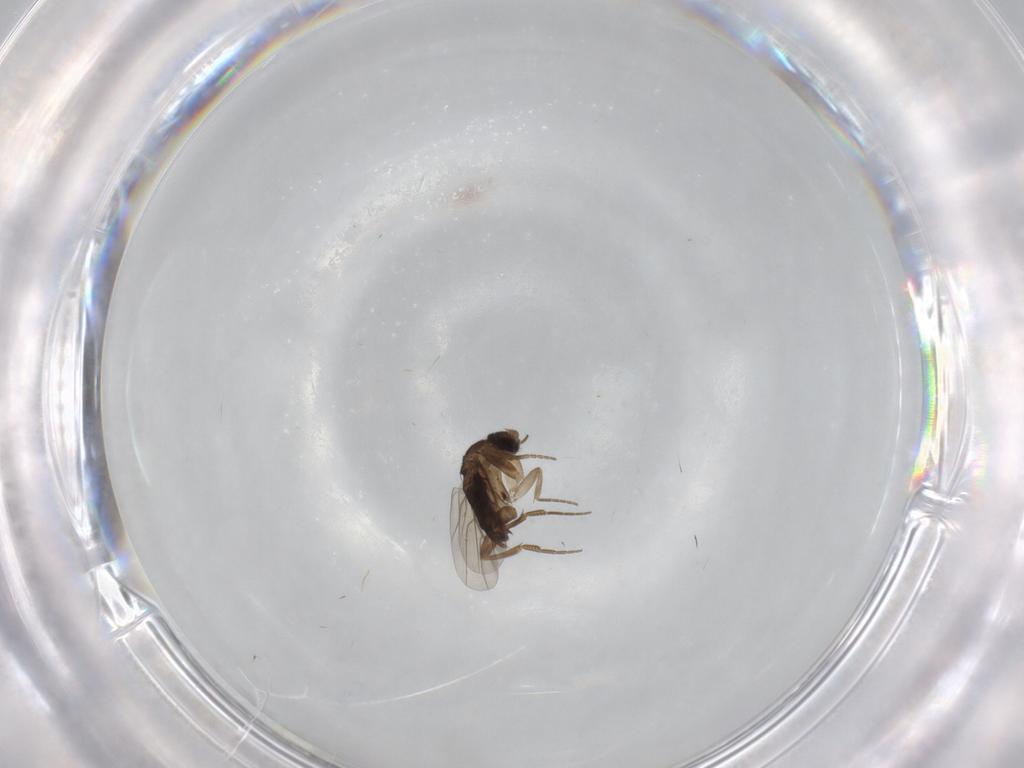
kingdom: Animalia
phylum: Arthropoda
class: Insecta
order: Diptera
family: Phoridae
